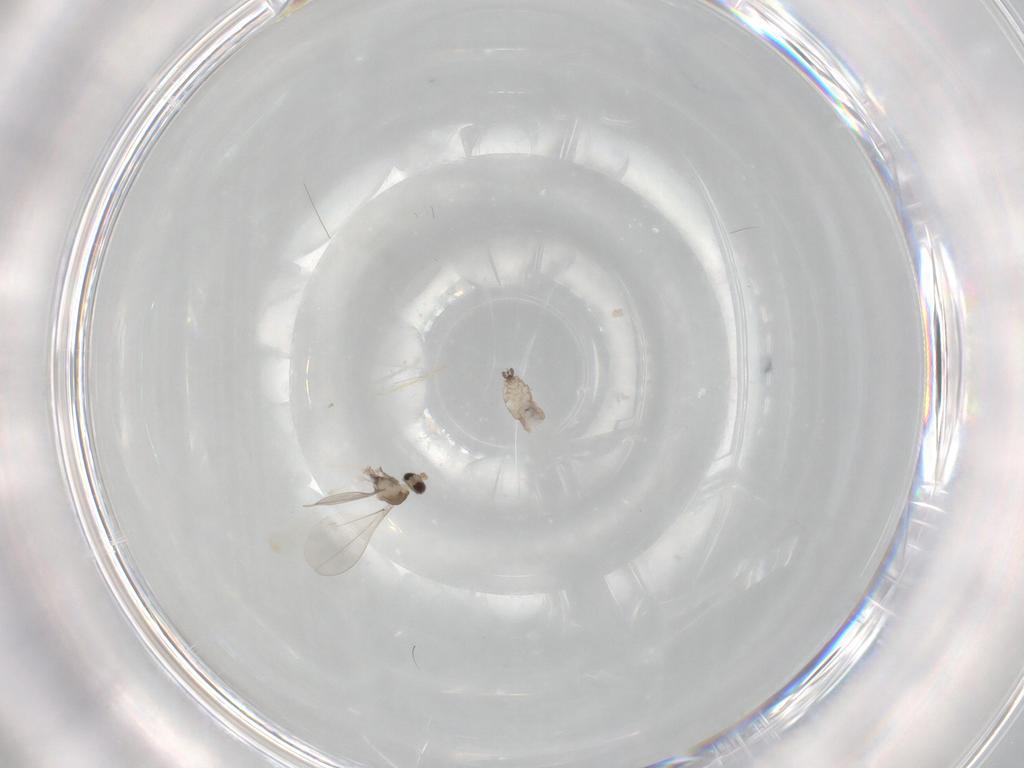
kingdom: Animalia
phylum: Arthropoda
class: Insecta
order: Diptera
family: Cecidomyiidae
